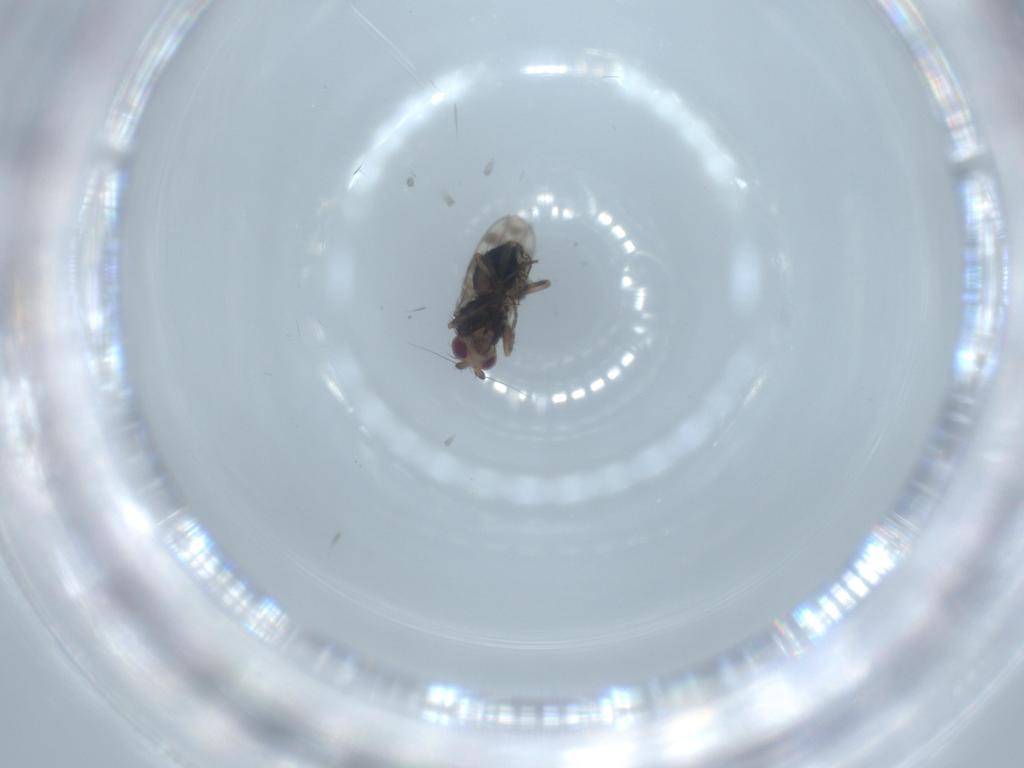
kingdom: Animalia
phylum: Arthropoda
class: Insecta
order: Diptera
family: Sphaeroceridae
